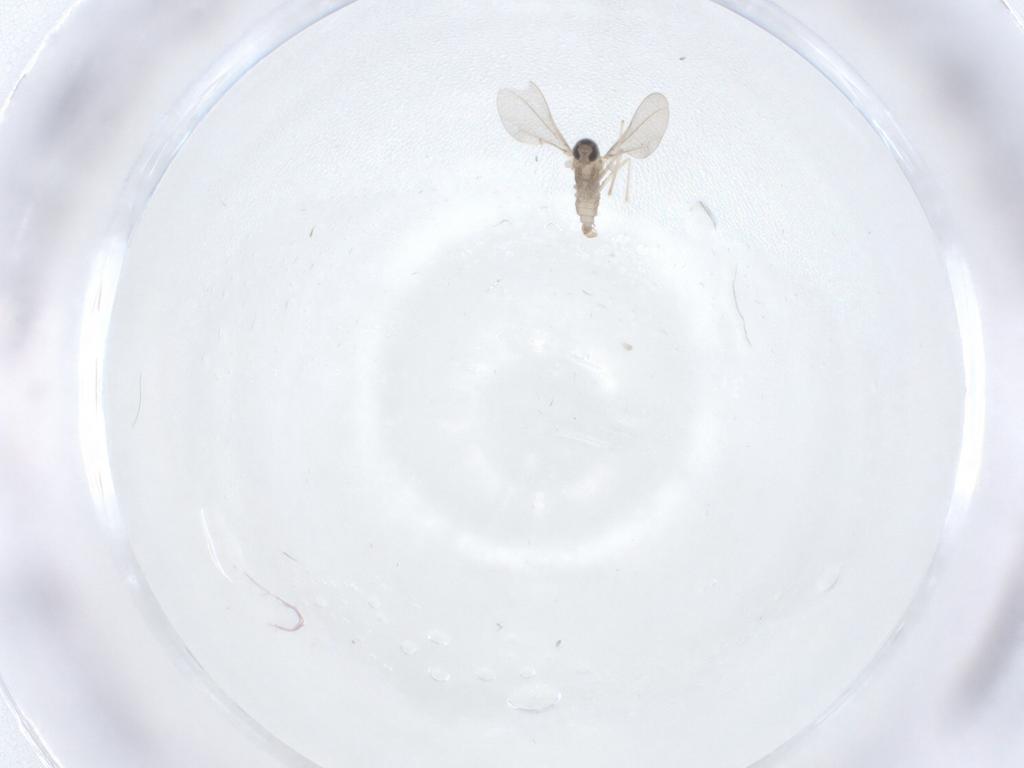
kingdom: Animalia
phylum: Arthropoda
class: Insecta
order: Diptera
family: Cecidomyiidae
